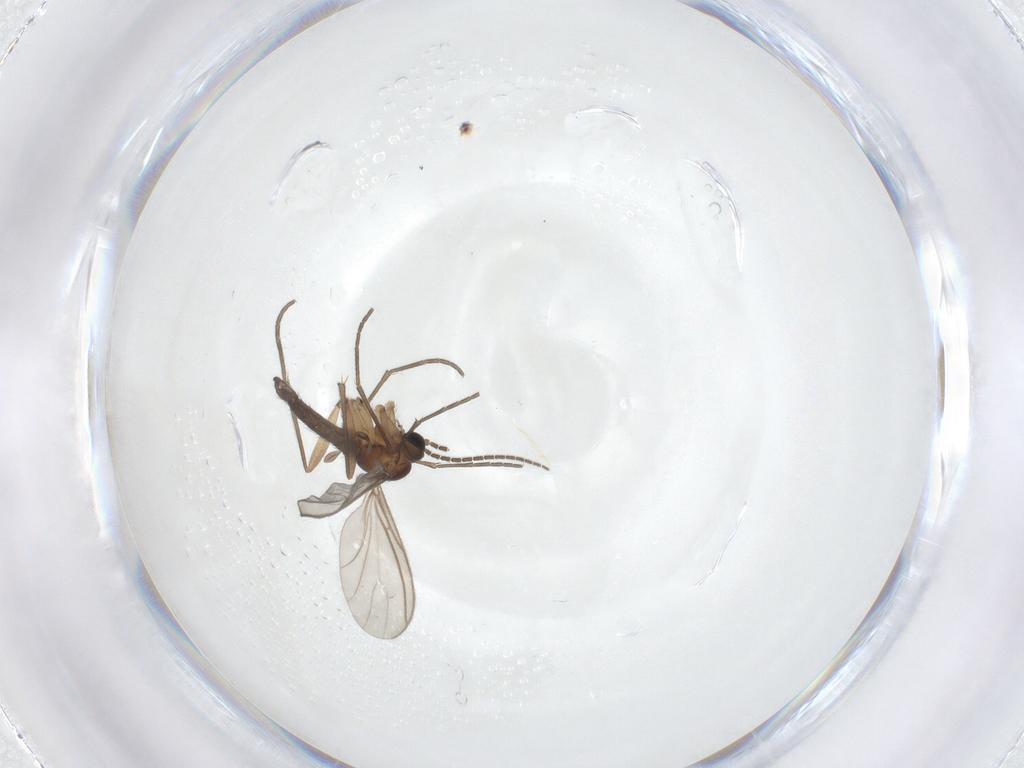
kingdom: Animalia
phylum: Arthropoda
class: Insecta
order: Diptera
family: Sciaridae
